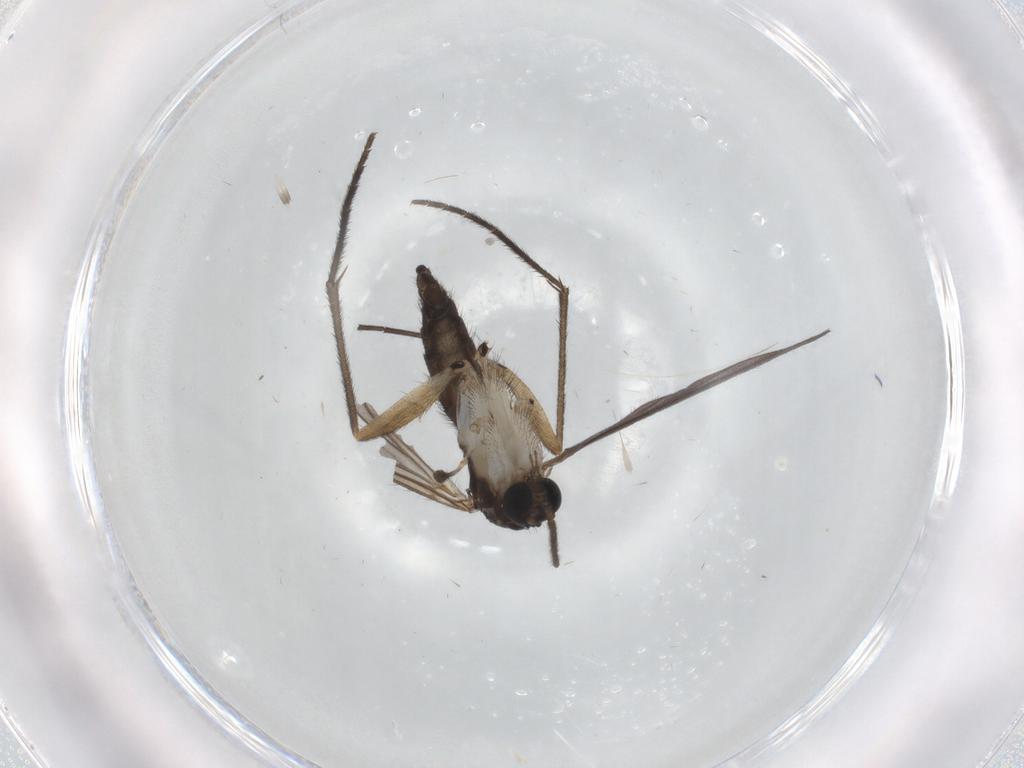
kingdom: Animalia
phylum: Arthropoda
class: Insecta
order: Diptera
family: Sciaridae
